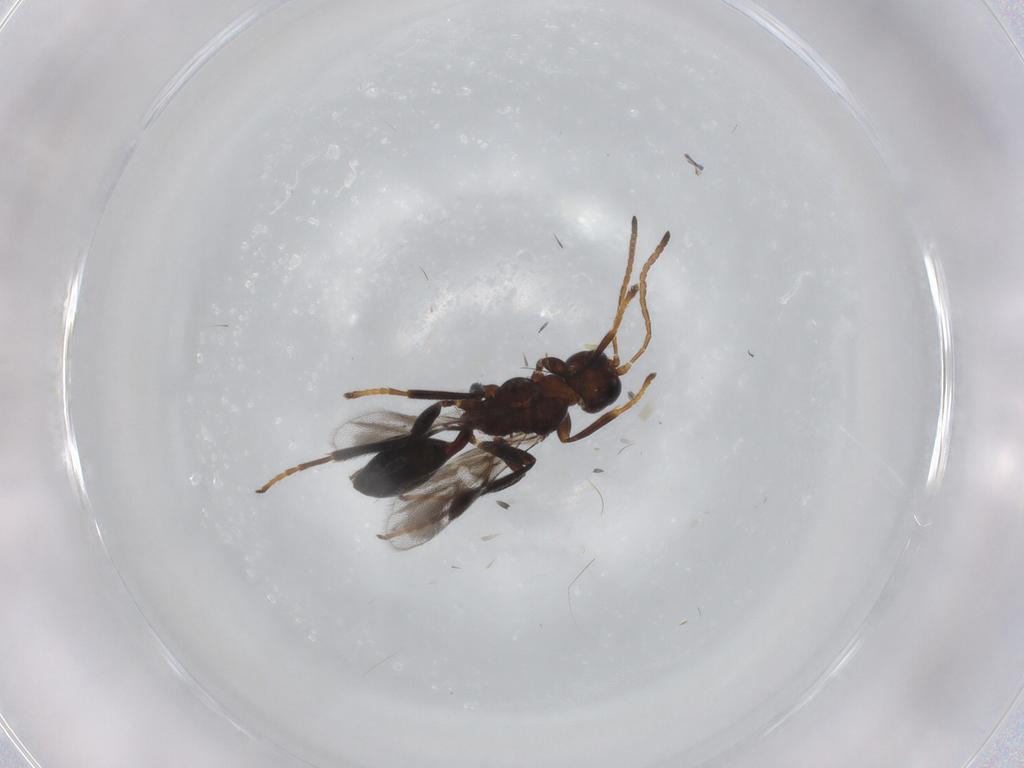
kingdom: Animalia
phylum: Arthropoda
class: Insecta
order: Hymenoptera
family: Braconidae
